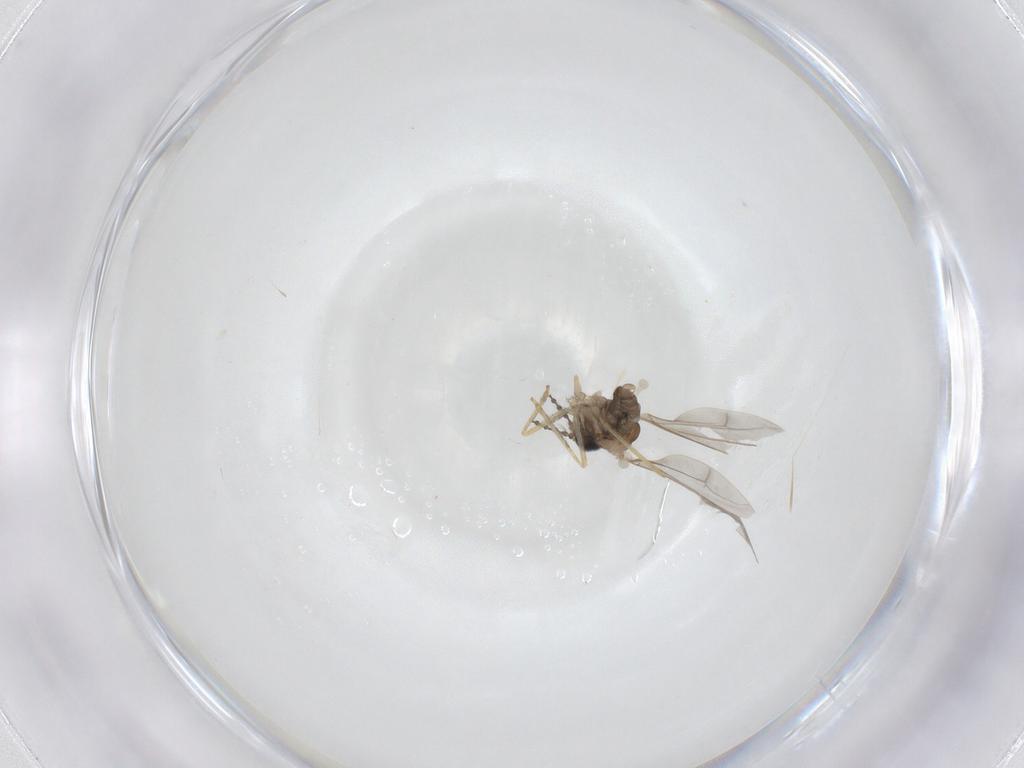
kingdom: Animalia
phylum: Arthropoda
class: Insecta
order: Diptera
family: Cecidomyiidae
